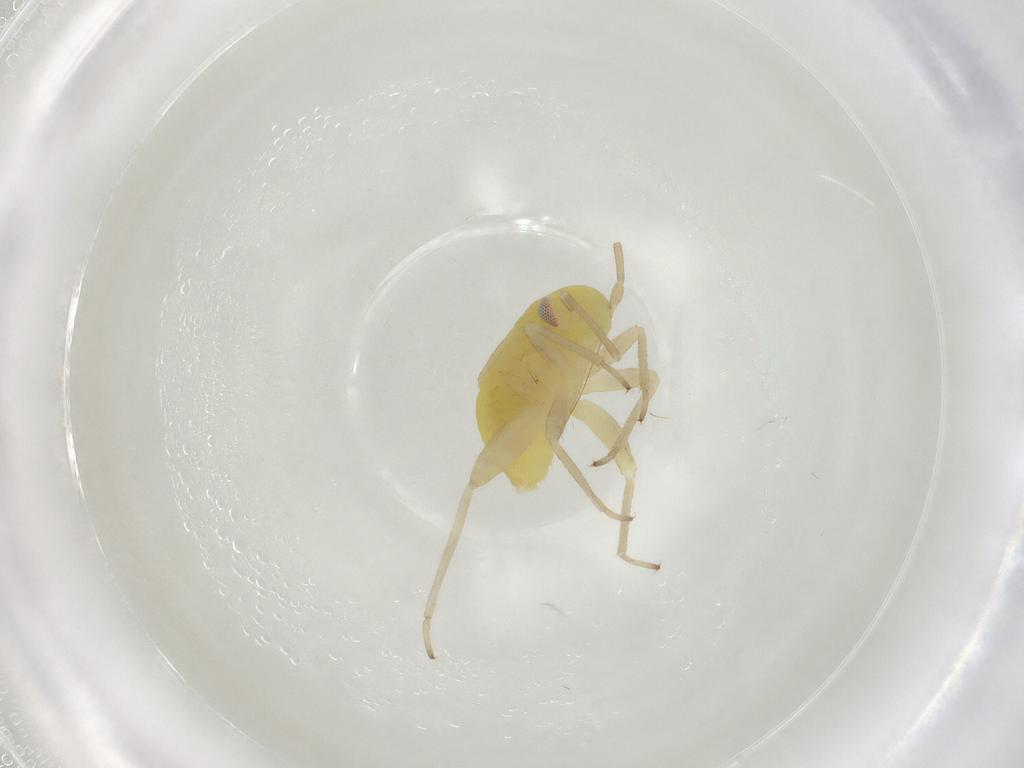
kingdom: Animalia
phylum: Arthropoda
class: Insecta
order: Hemiptera
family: Miridae
